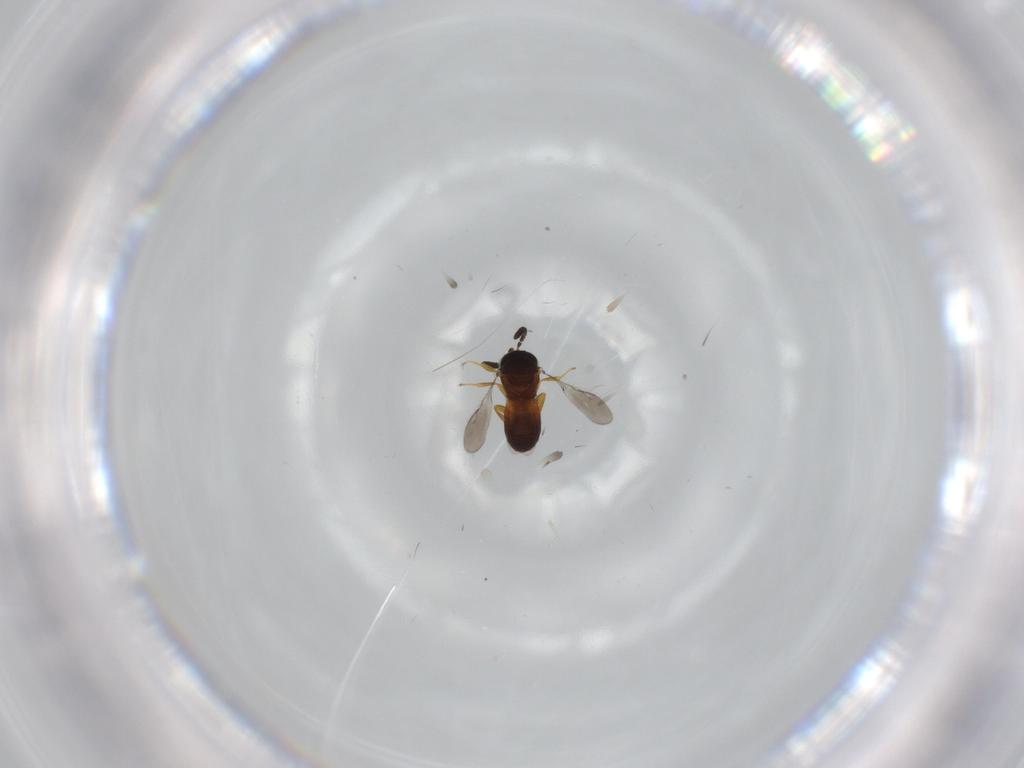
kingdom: Animalia
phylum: Arthropoda
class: Insecta
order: Hymenoptera
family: Scelionidae
